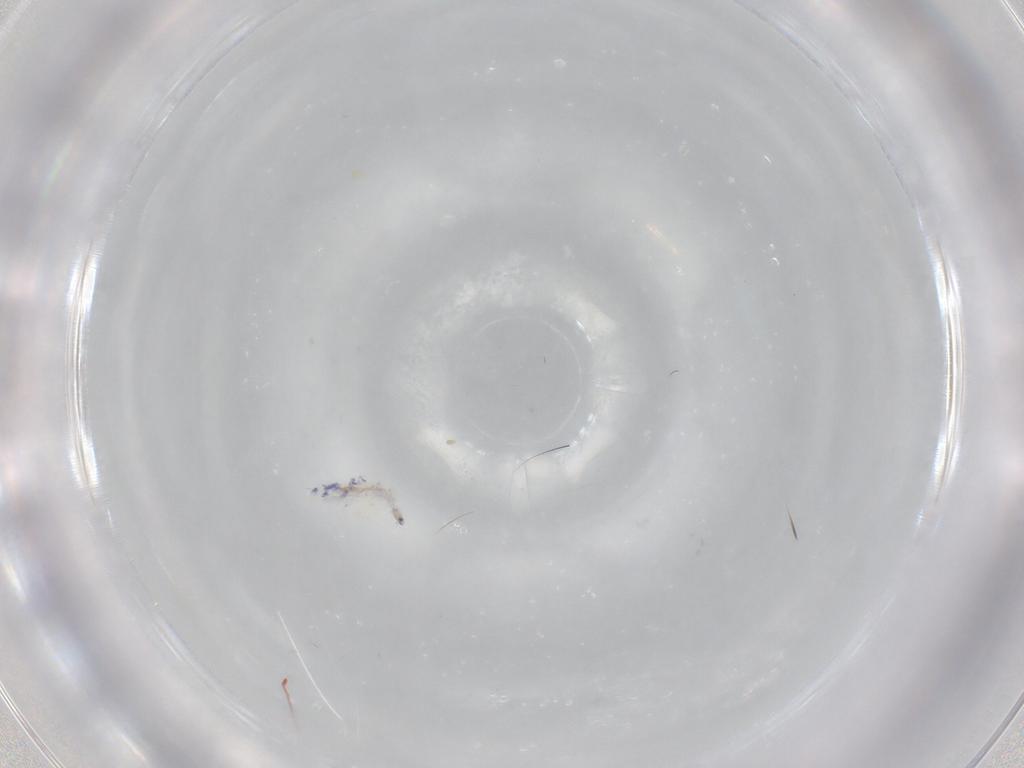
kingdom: Animalia
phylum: Arthropoda
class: Collembola
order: Entomobryomorpha
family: Entomobryidae
